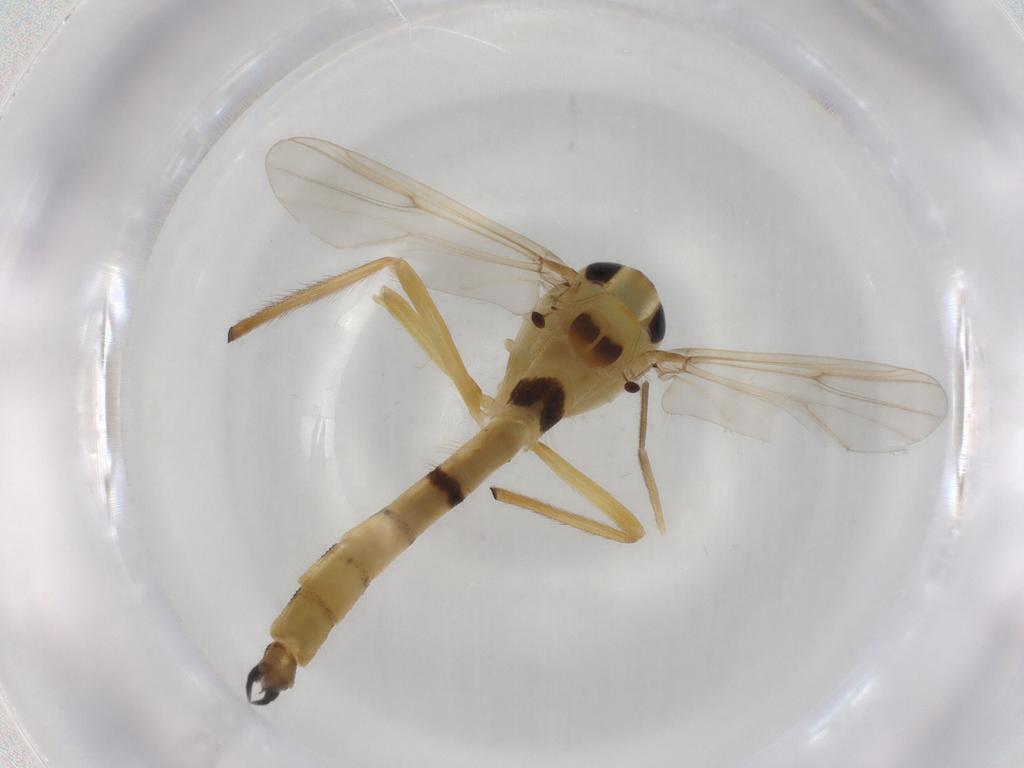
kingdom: Animalia
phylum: Arthropoda
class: Insecta
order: Diptera
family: Chironomidae
